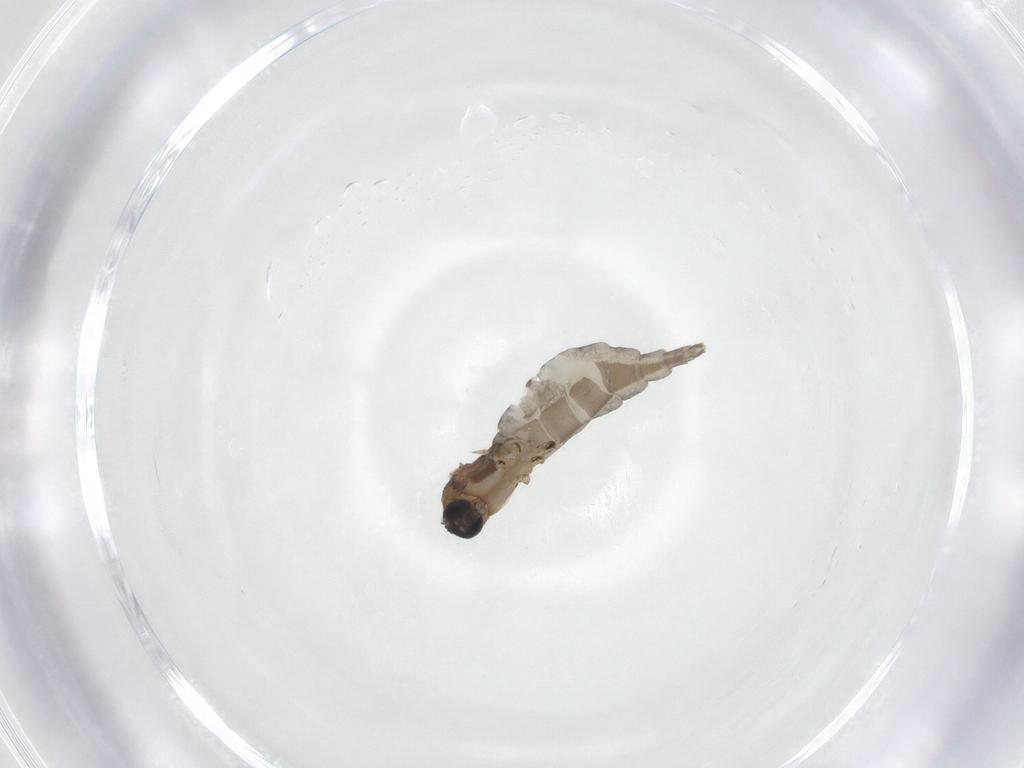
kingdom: Animalia
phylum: Arthropoda
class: Insecta
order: Diptera
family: Sciaridae
